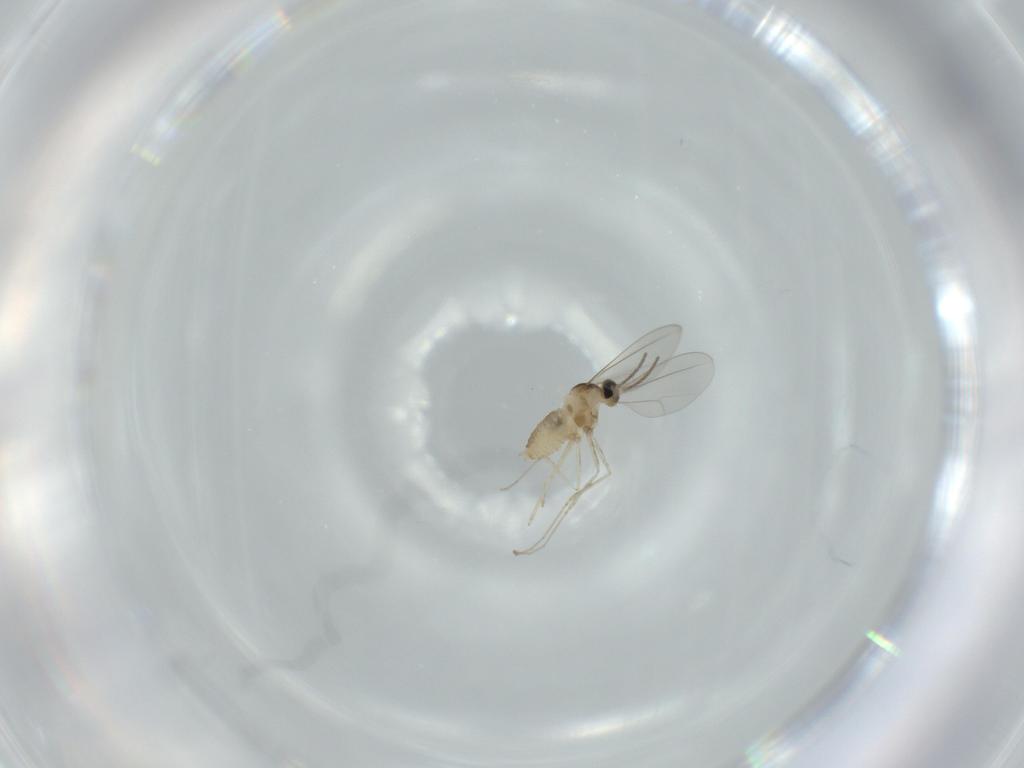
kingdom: Animalia
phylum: Arthropoda
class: Insecta
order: Diptera
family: Cecidomyiidae
